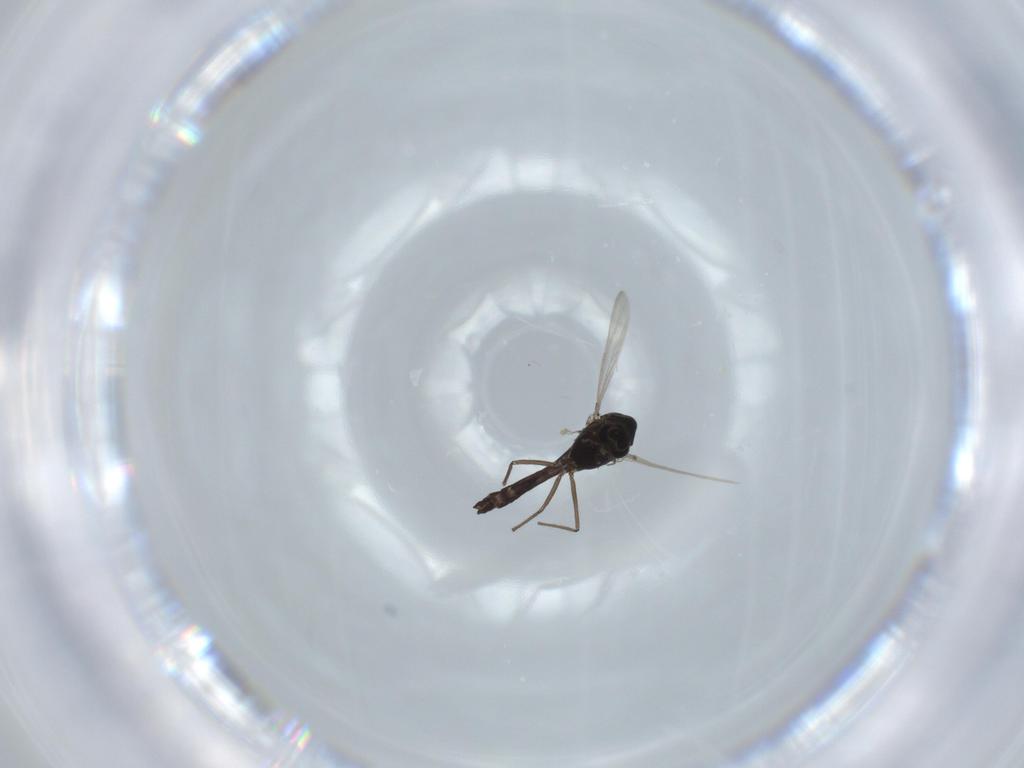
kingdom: Animalia
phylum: Arthropoda
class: Insecta
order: Diptera
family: Chironomidae
